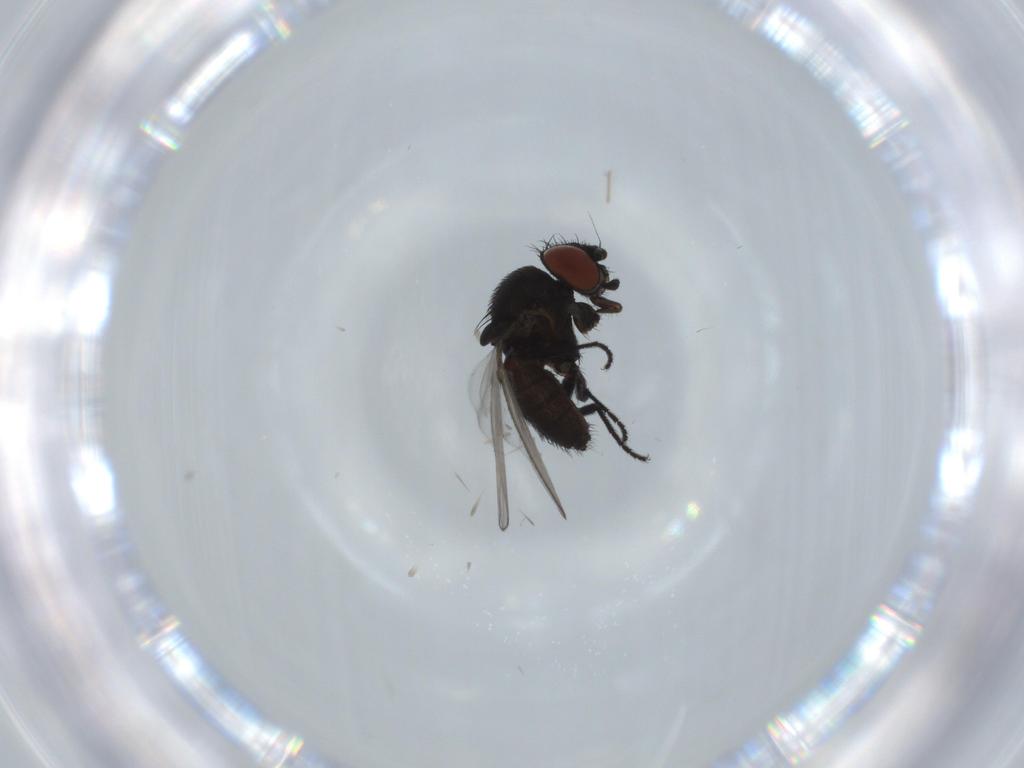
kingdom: Animalia
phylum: Arthropoda
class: Insecta
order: Diptera
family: Milichiidae
